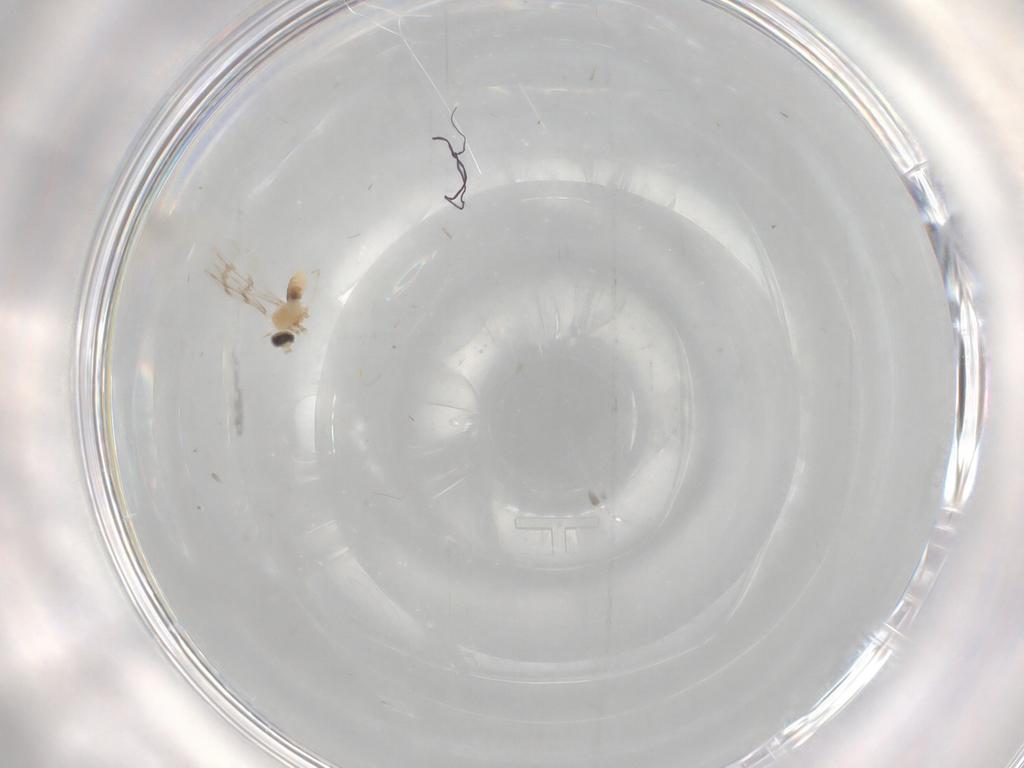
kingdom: Animalia
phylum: Arthropoda
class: Insecta
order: Diptera
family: Cecidomyiidae
